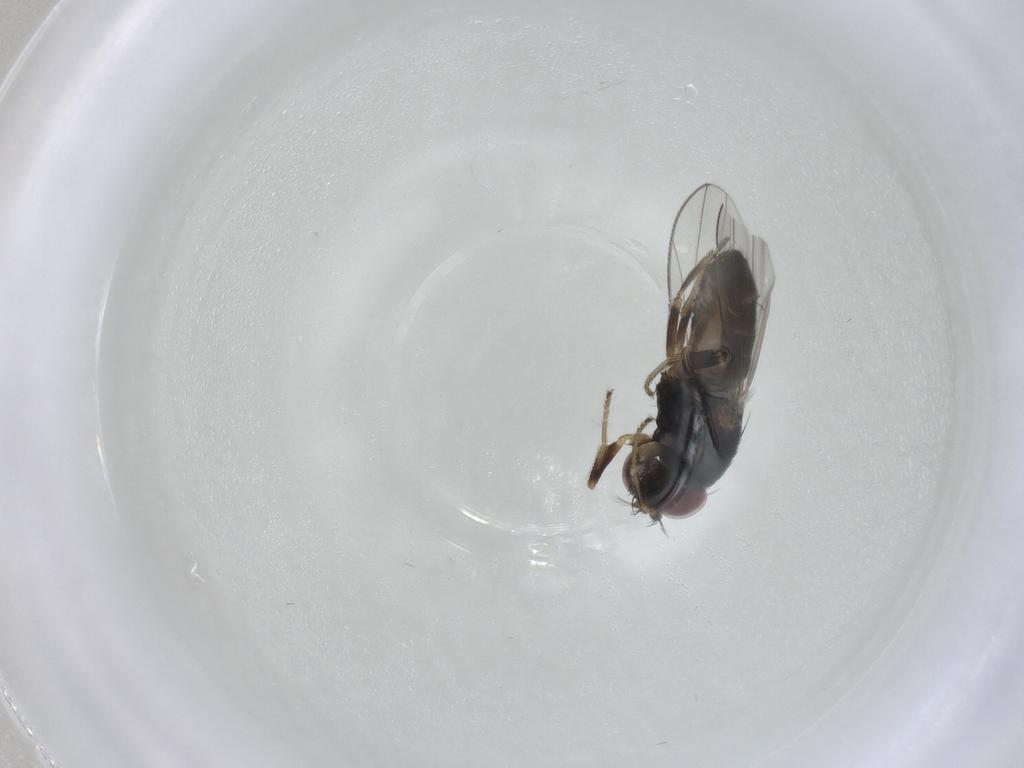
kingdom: Animalia
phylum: Arthropoda
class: Insecta
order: Diptera
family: Ephydridae
